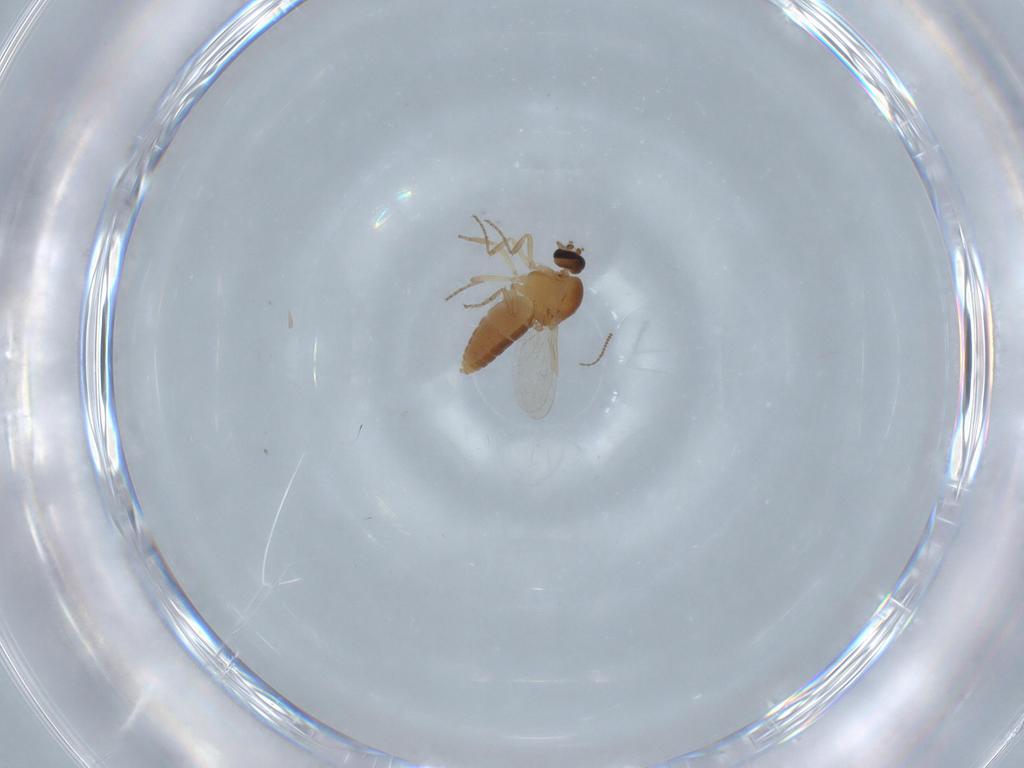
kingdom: Animalia
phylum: Arthropoda
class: Insecta
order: Diptera
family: Ceratopogonidae
